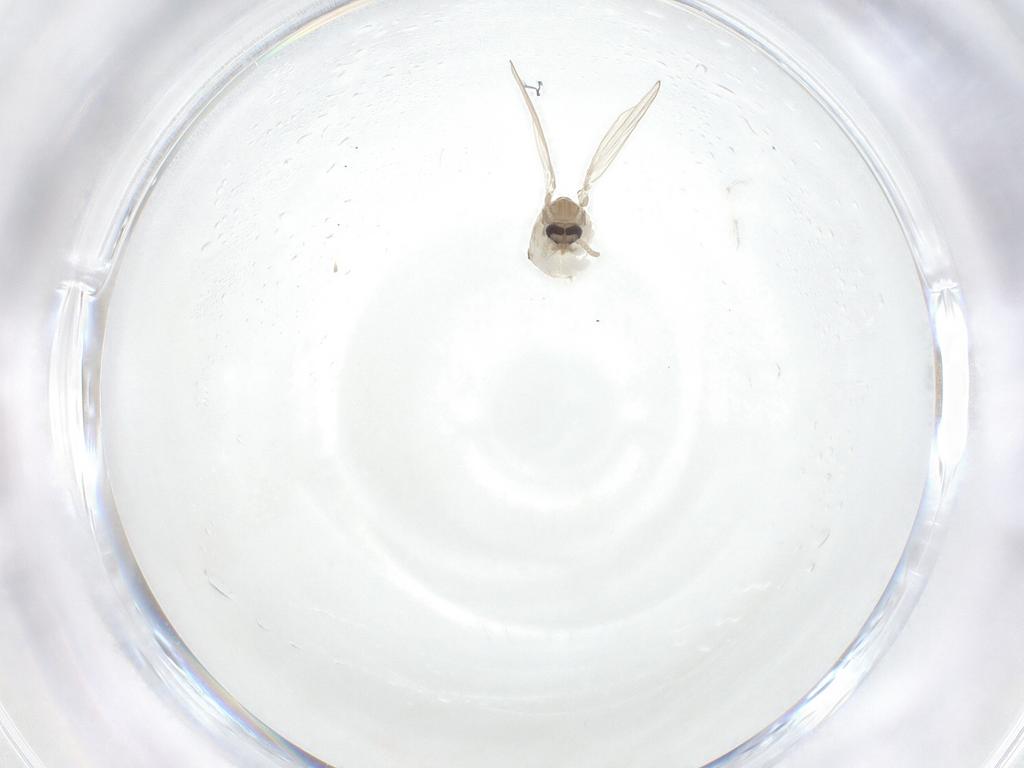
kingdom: Animalia
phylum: Arthropoda
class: Insecta
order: Diptera
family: Psychodidae
